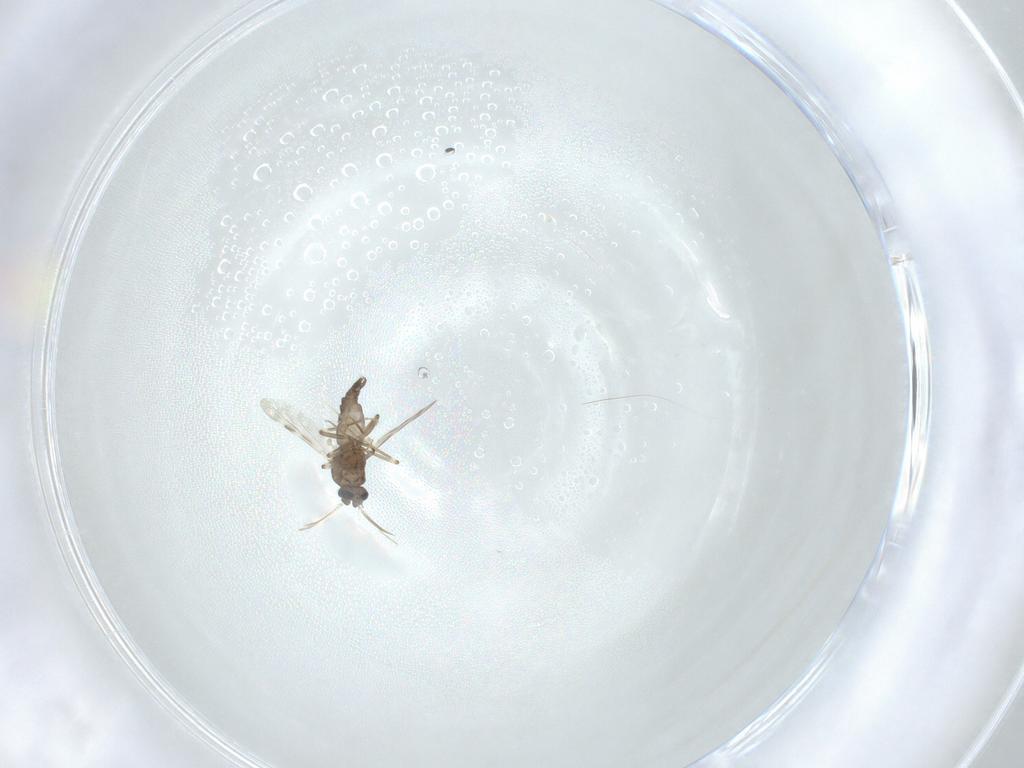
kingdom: Animalia
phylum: Arthropoda
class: Insecta
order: Diptera
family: Ceratopogonidae
